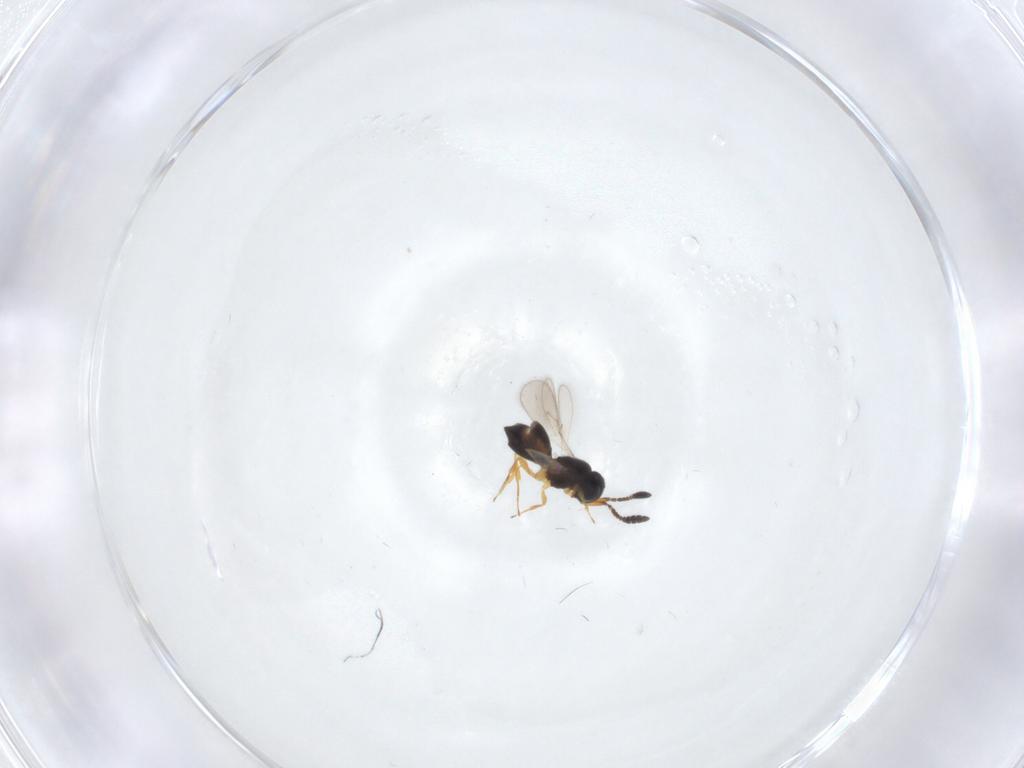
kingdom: Animalia
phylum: Arthropoda
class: Insecta
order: Hymenoptera
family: Scelionidae
